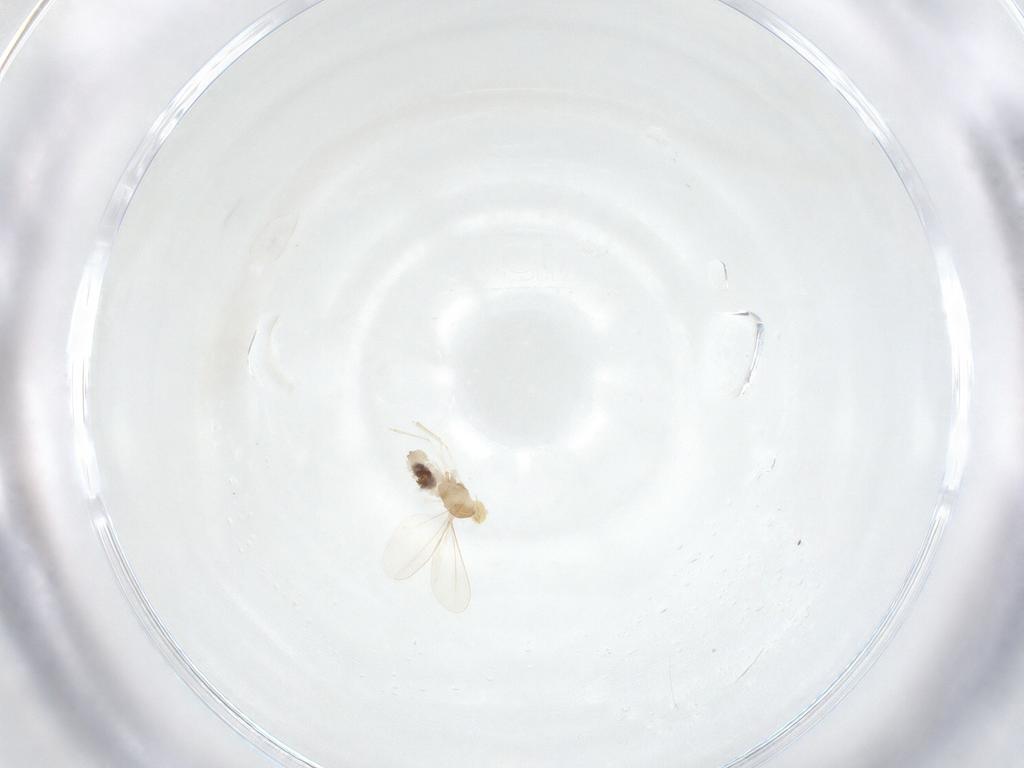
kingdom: Animalia
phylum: Arthropoda
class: Insecta
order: Diptera
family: Cecidomyiidae
